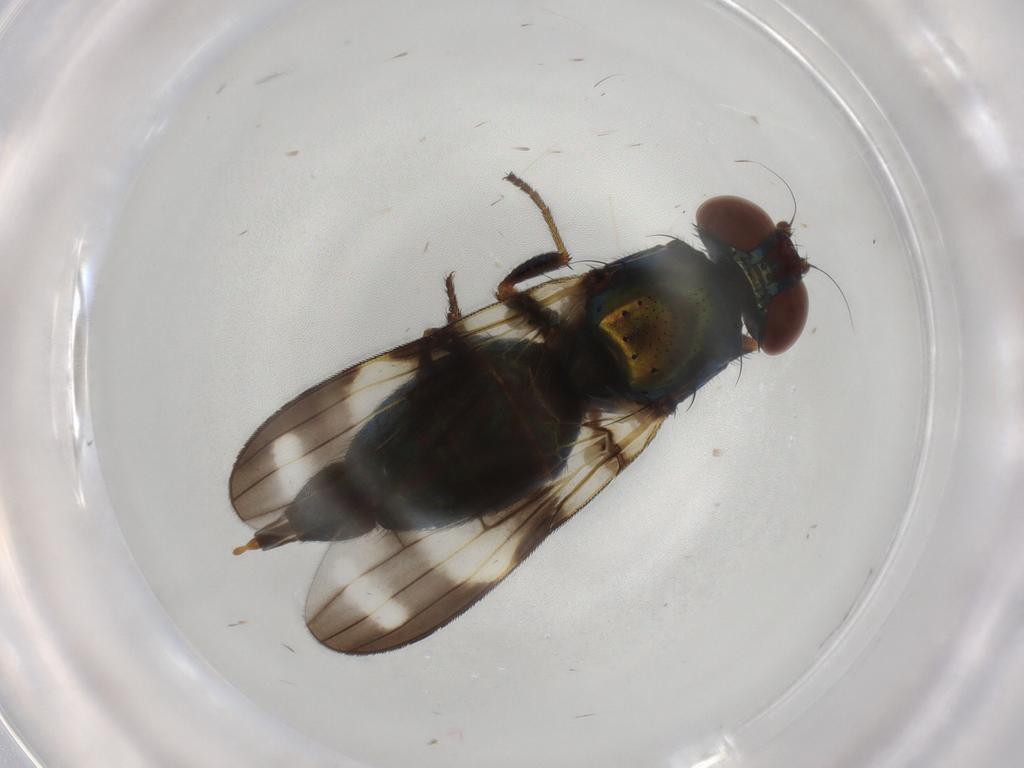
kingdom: Animalia
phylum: Arthropoda
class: Insecta
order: Diptera
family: Ulidiidae
